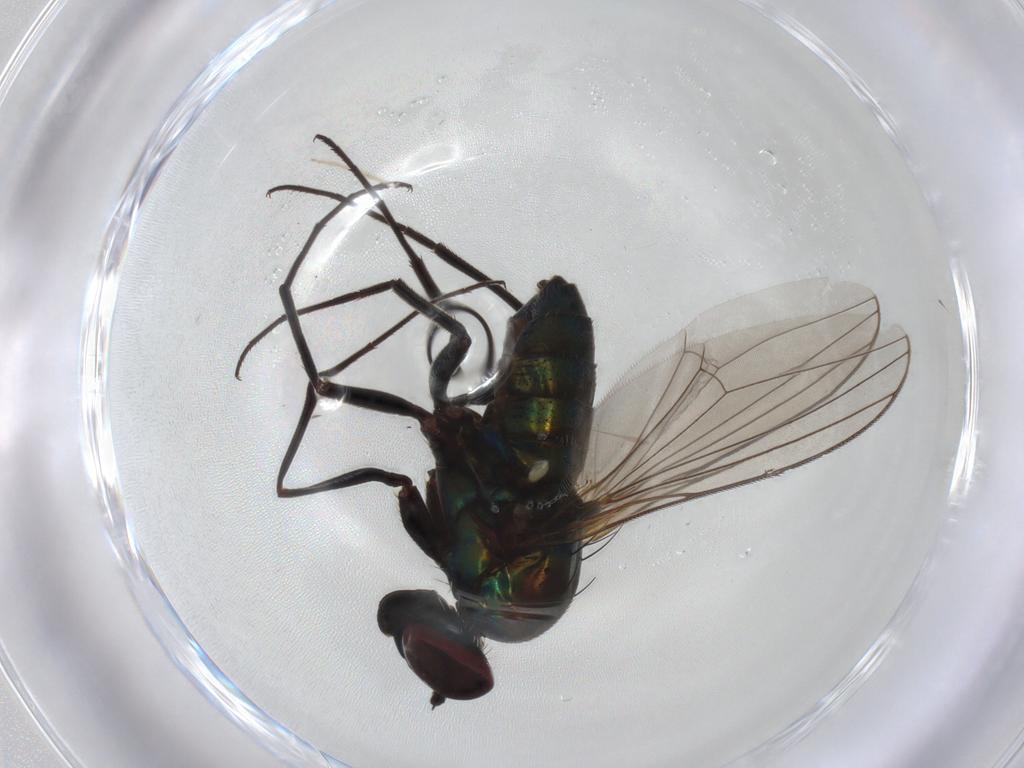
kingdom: Animalia
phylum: Arthropoda
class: Insecta
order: Diptera
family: Dolichopodidae
